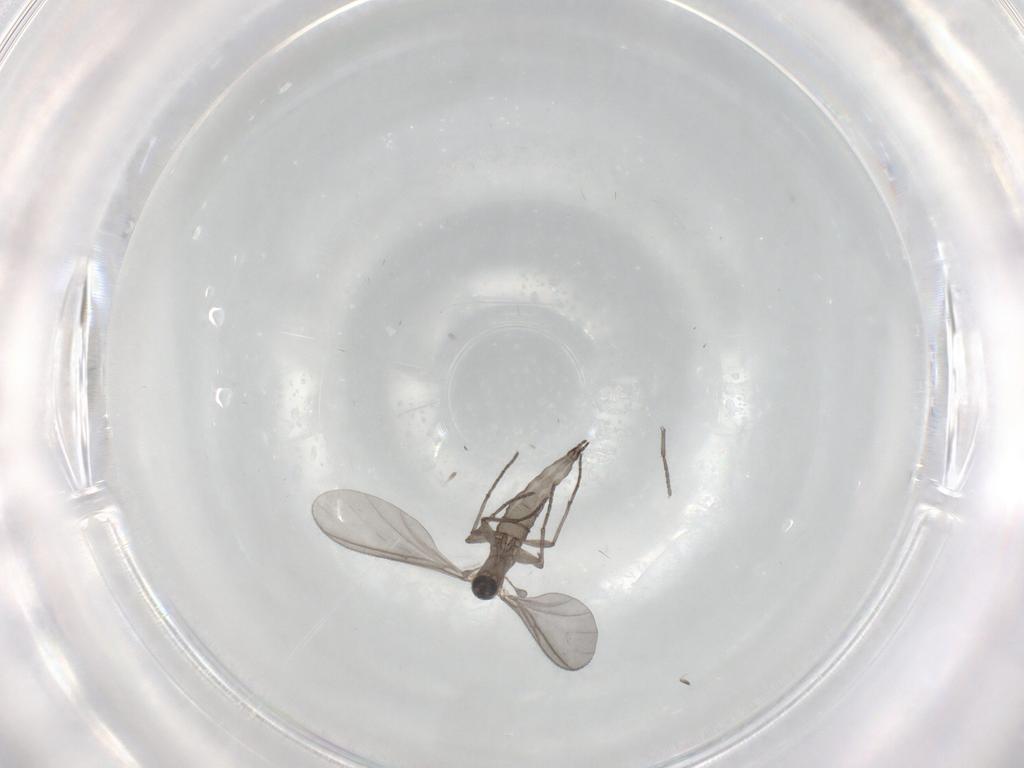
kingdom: Animalia
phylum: Arthropoda
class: Insecta
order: Diptera
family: Sciaridae
